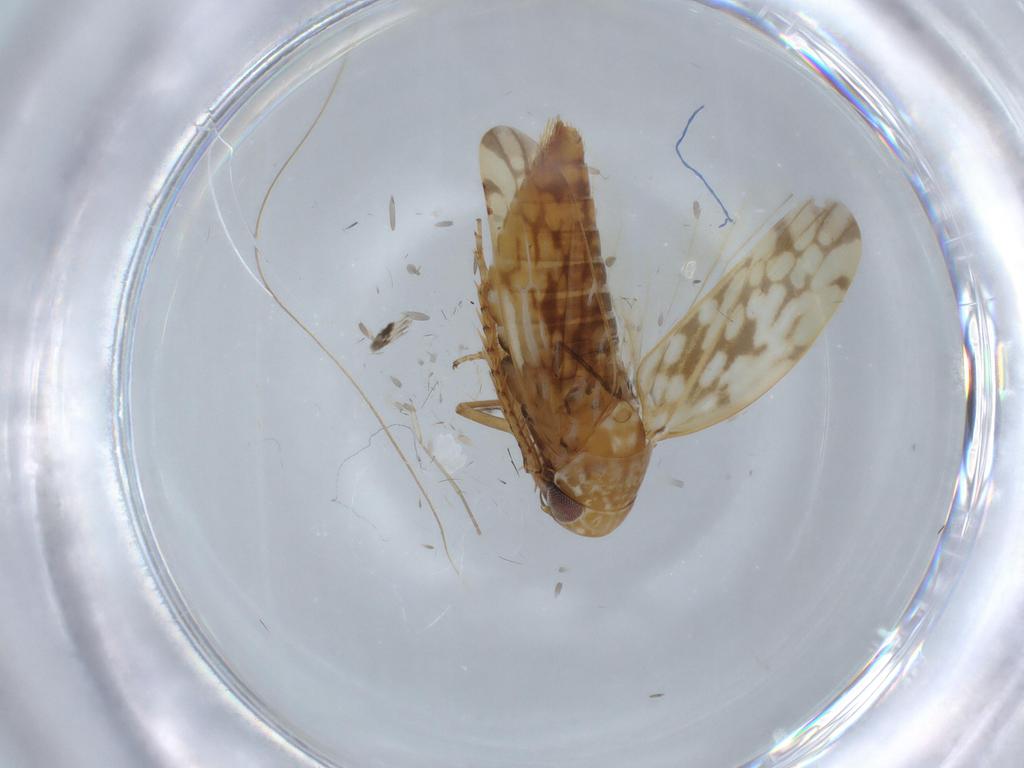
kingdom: Animalia
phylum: Arthropoda
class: Insecta
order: Hemiptera
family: Cicadellidae
